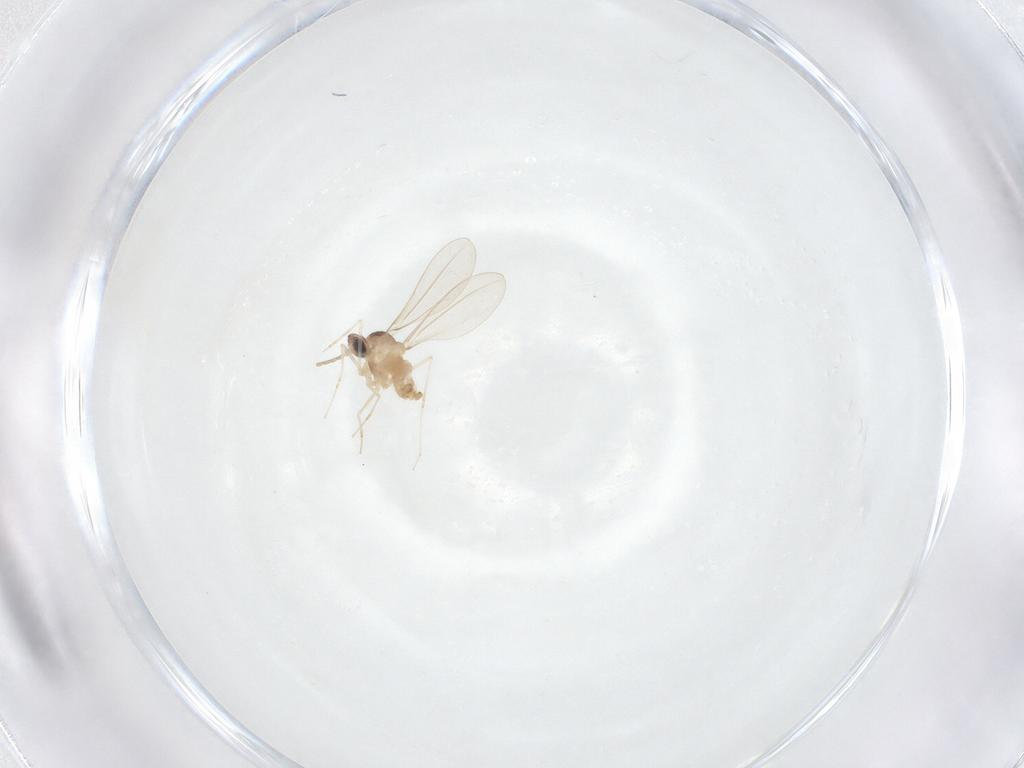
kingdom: Animalia
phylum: Arthropoda
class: Insecta
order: Diptera
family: Cecidomyiidae
